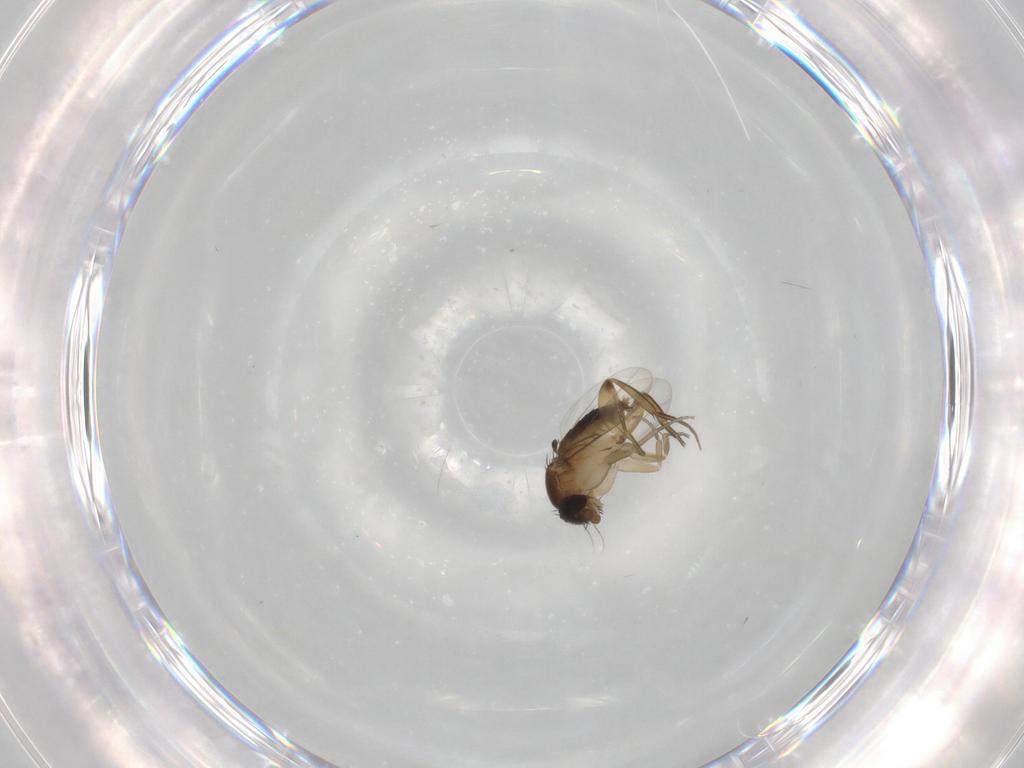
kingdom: Animalia
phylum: Arthropoda
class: Insecta
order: Diptera
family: Phoridae
